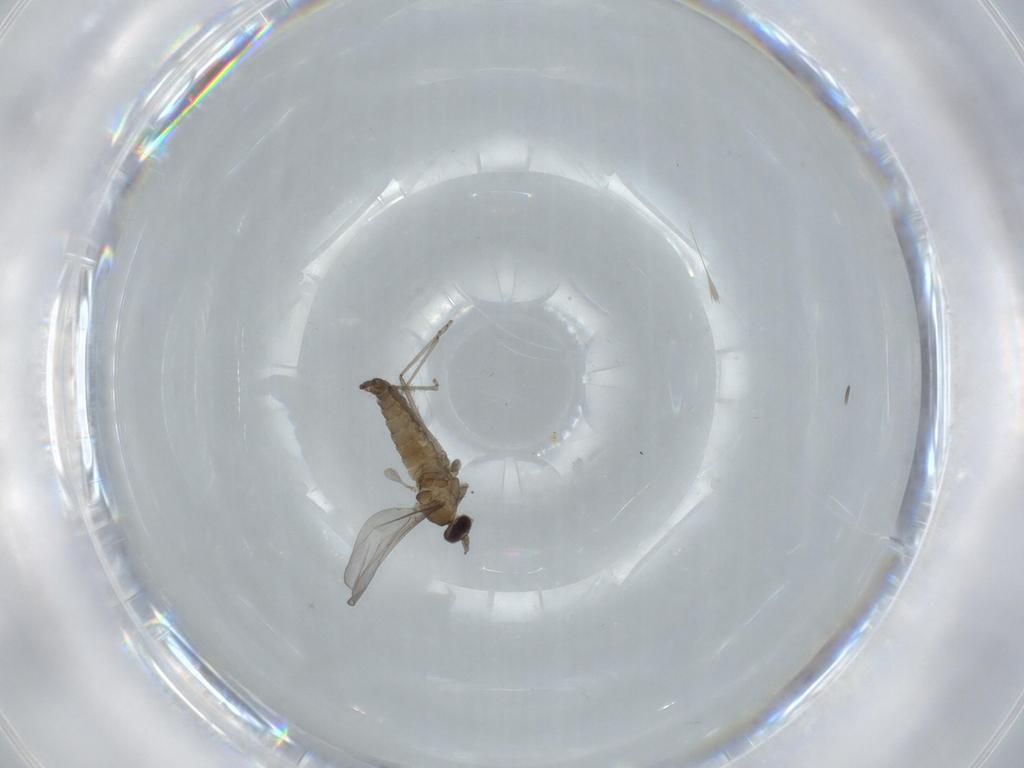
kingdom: Animalia
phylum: Arthropoda
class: Insecta
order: Diptera
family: Cecidomyiidae
